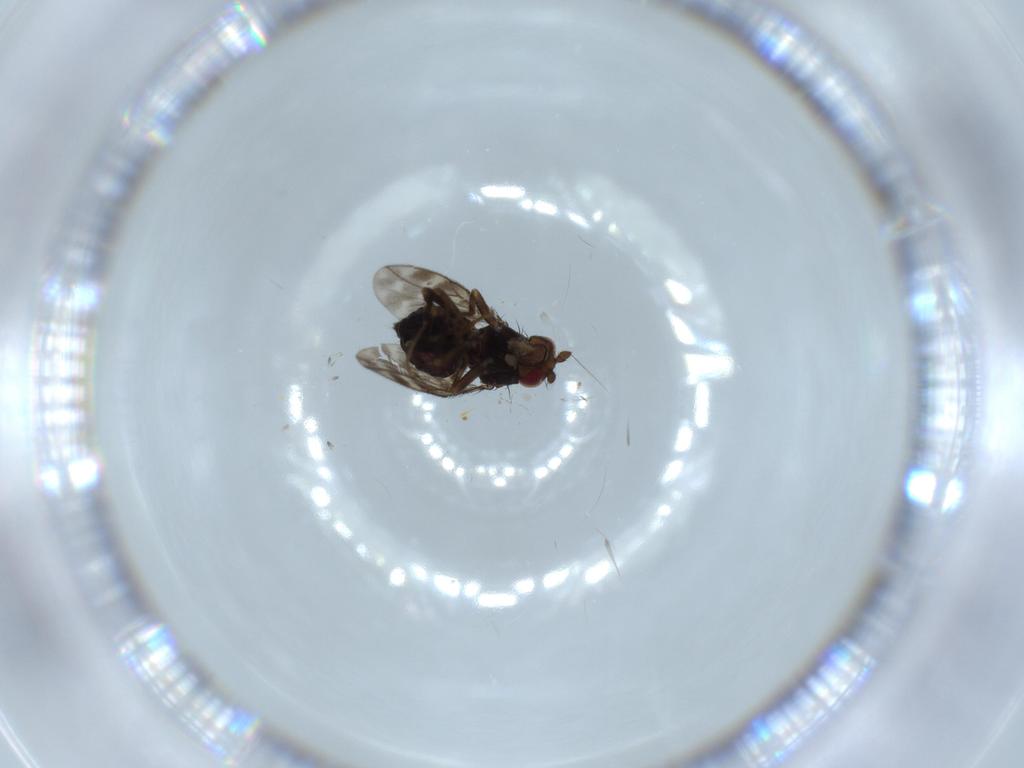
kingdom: Animalia
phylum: Arthropoda
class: Insecta
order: Diptera
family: Sphaeroceridae
